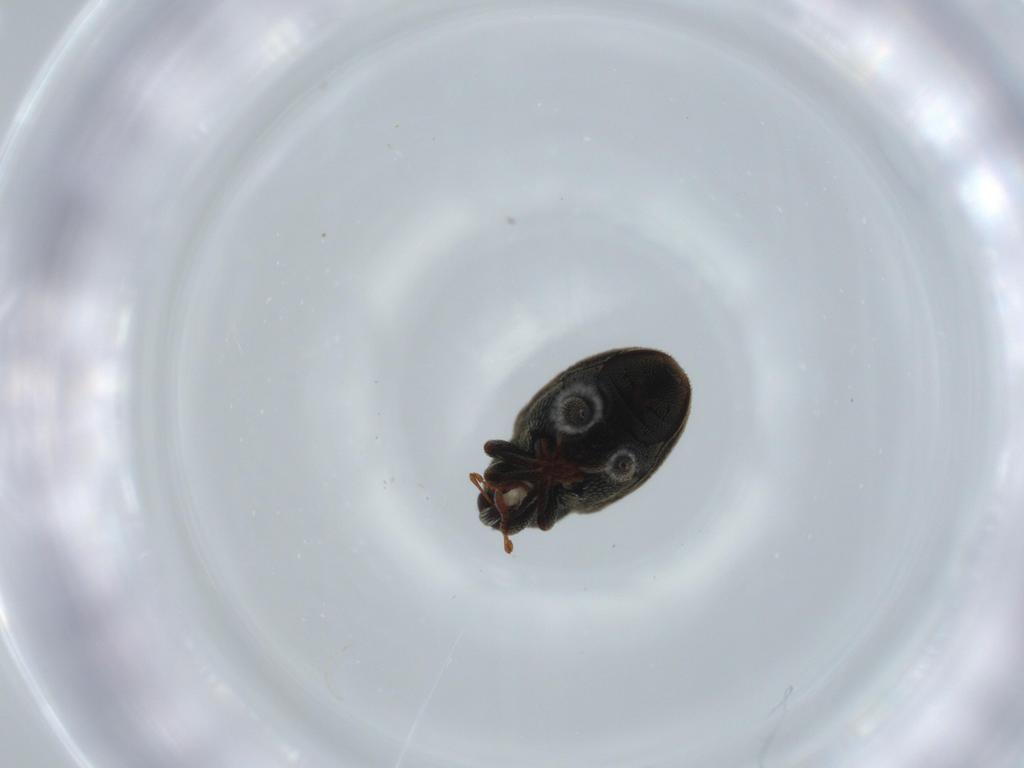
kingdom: Animalia
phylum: Arthropoda
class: Insecta
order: Coleoptera
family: Curculionidae
